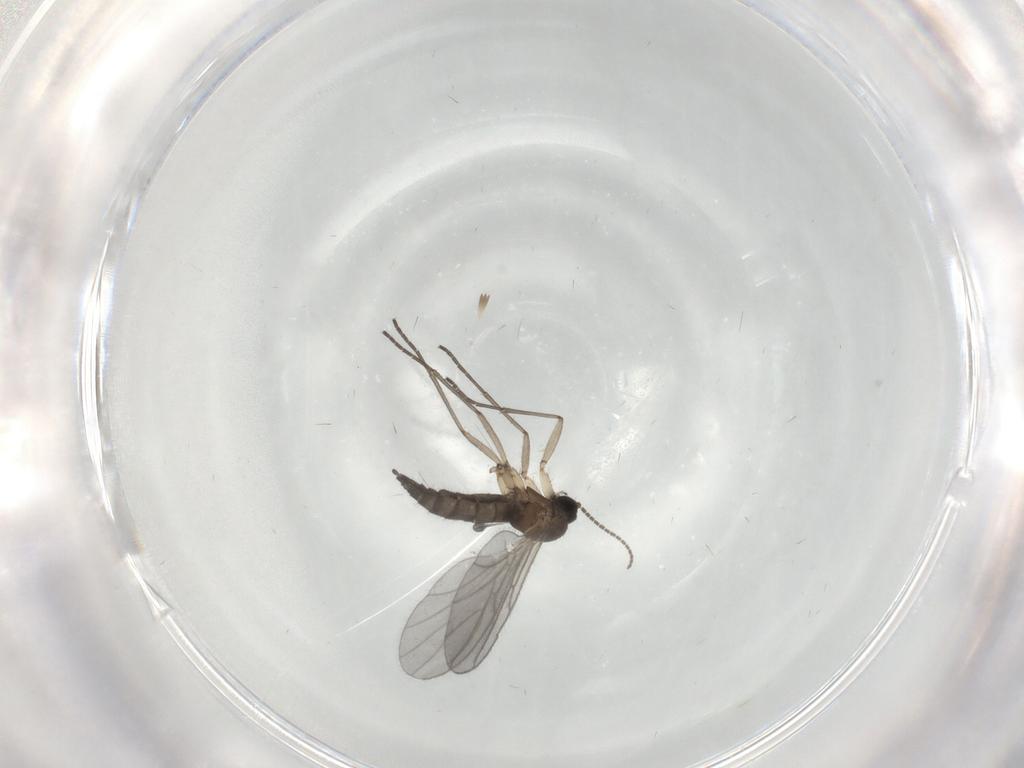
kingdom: Animalia
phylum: Arthropoda
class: Insecta
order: Diptera
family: Sciaridae
